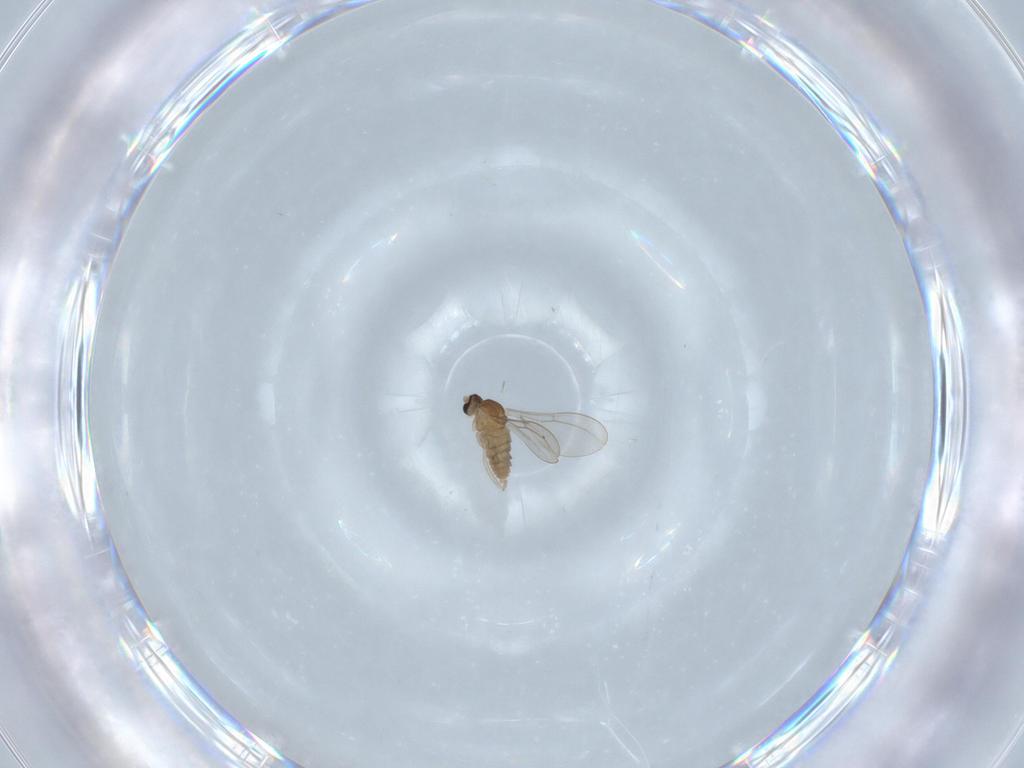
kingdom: Animalia
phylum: Arthropoda
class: Insecta
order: Diptera
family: Cecidomyiidae
